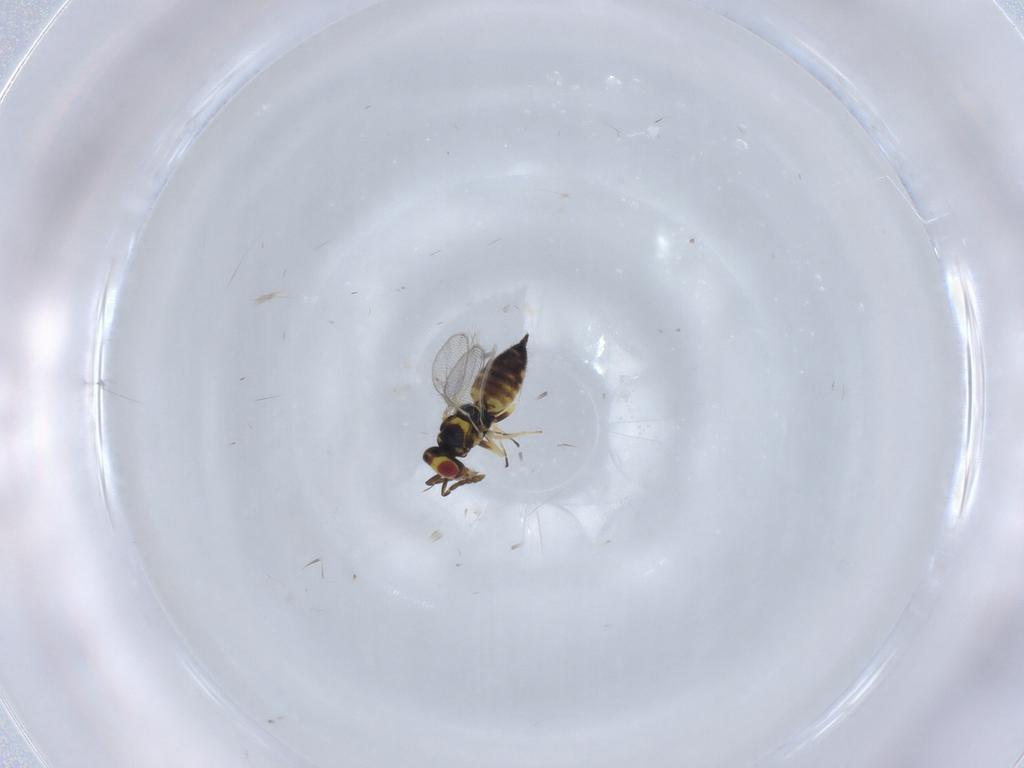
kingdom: Animalia
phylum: Arthropoda
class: Insecta
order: Hymenoptera
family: Eulophidae
